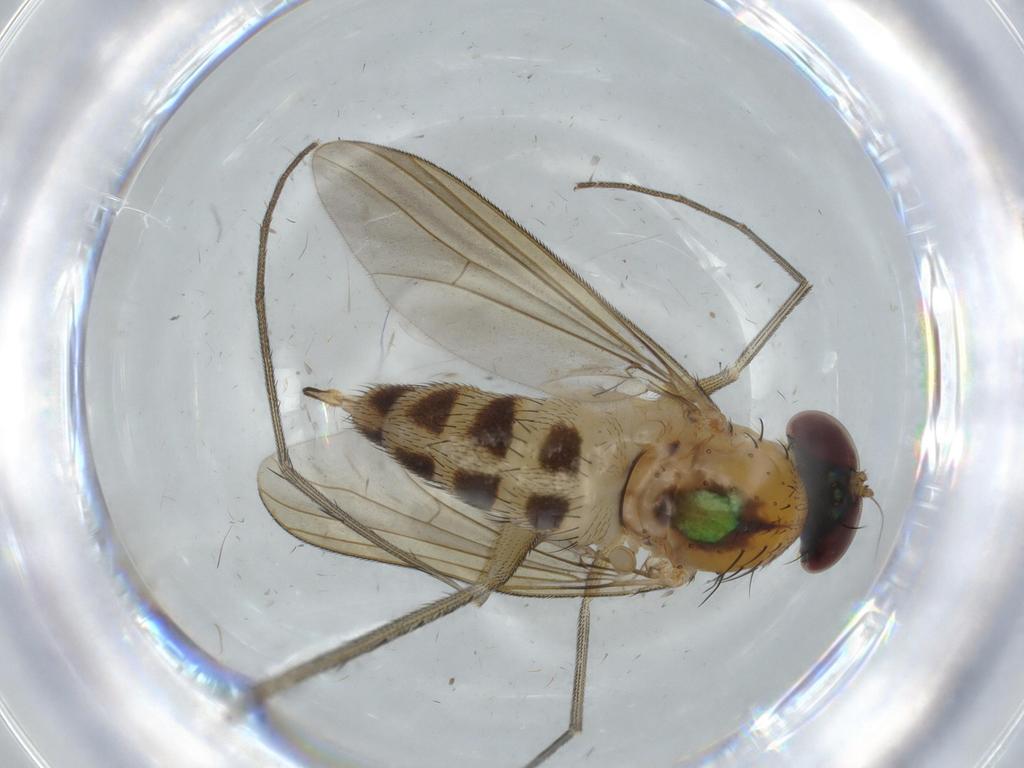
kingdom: Animalia
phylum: Arthropoda
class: Insecta
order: Diptera
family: Dolichopodidae
